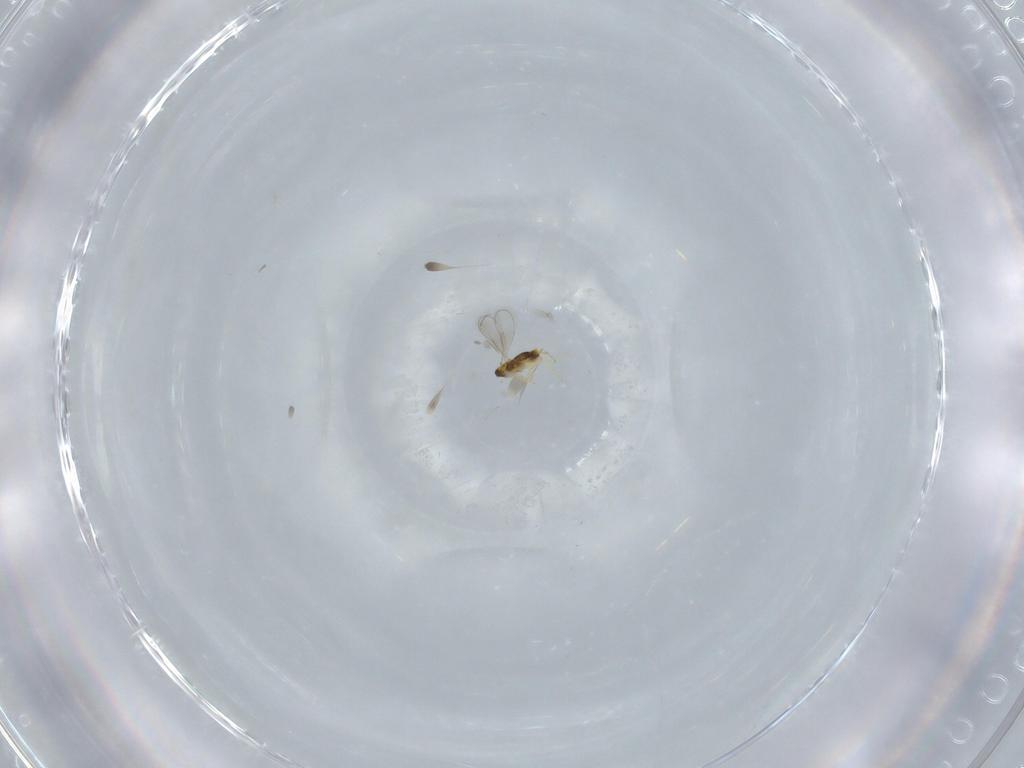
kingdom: Animalia
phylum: Arthropoda
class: Insecta
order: Hymenoptera
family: Aphelinidae
